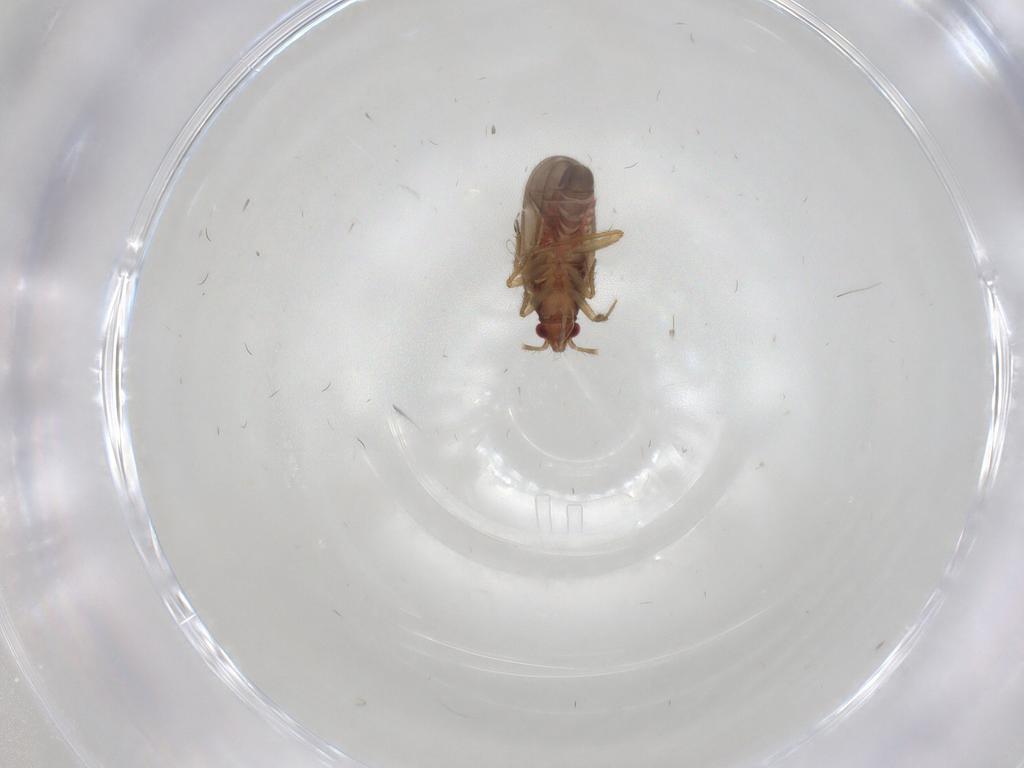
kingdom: Animalia
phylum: Arthropoda
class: Insecta
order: Hemiptera
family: Ceratocombidae
